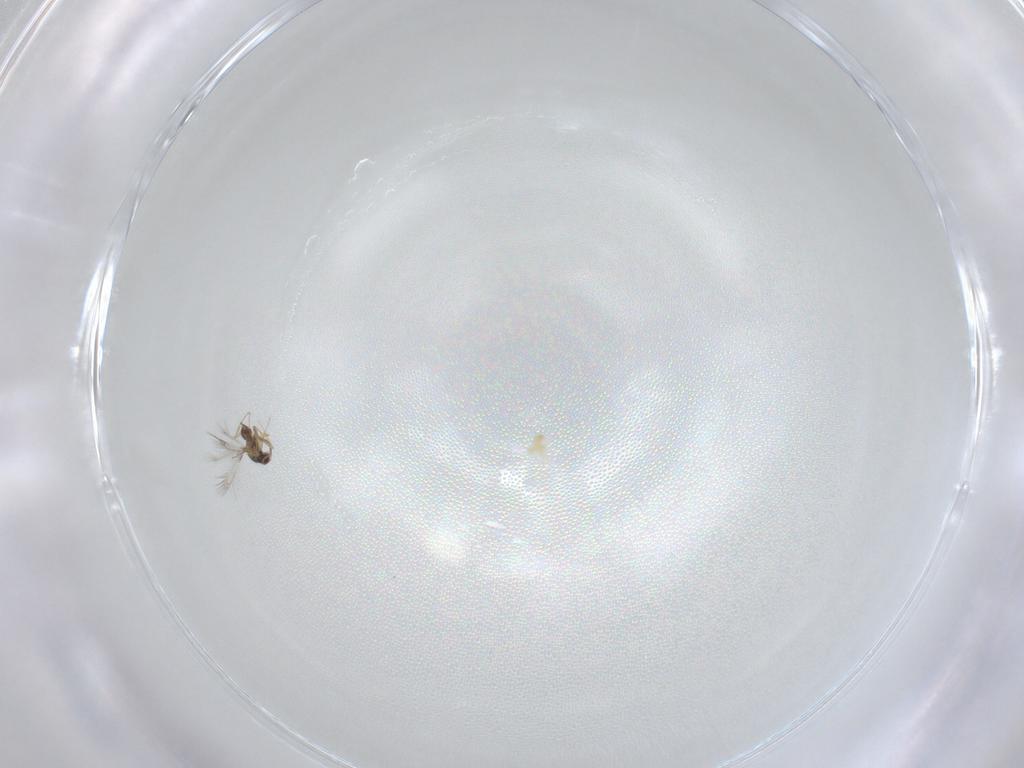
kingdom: Animalia
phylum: Arthropoda
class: Insecta
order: Hymenoptera
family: Mymaridae
